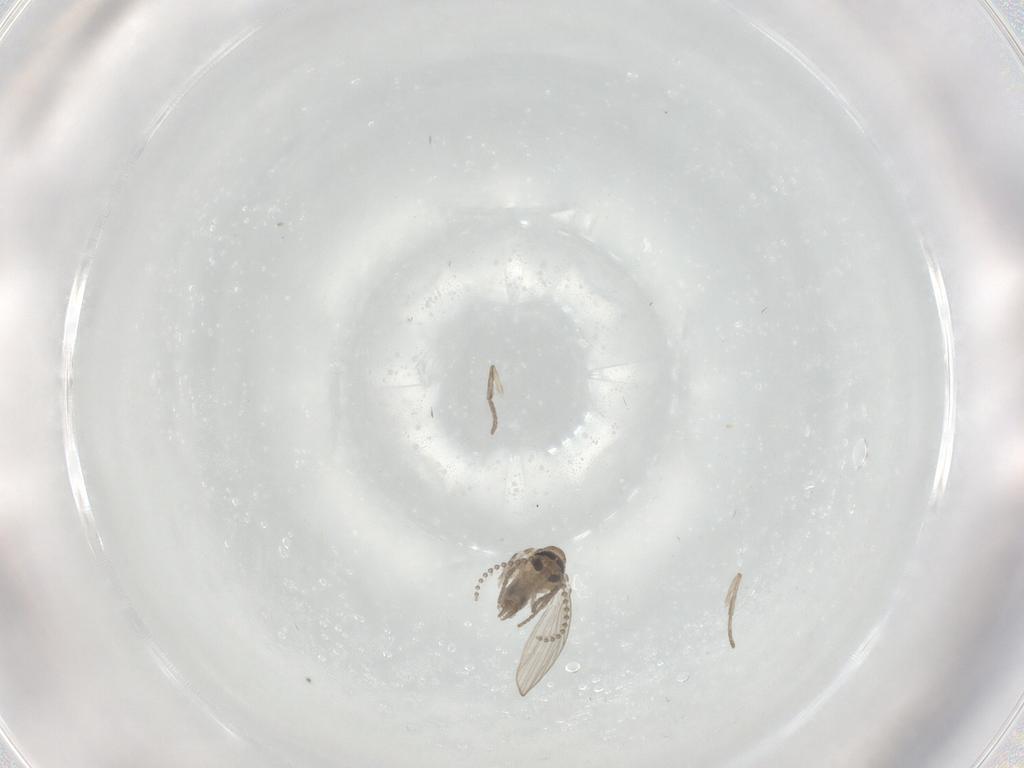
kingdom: Animalia
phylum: Arthropoda
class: Insecta
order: Diptera
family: Psychodidae
